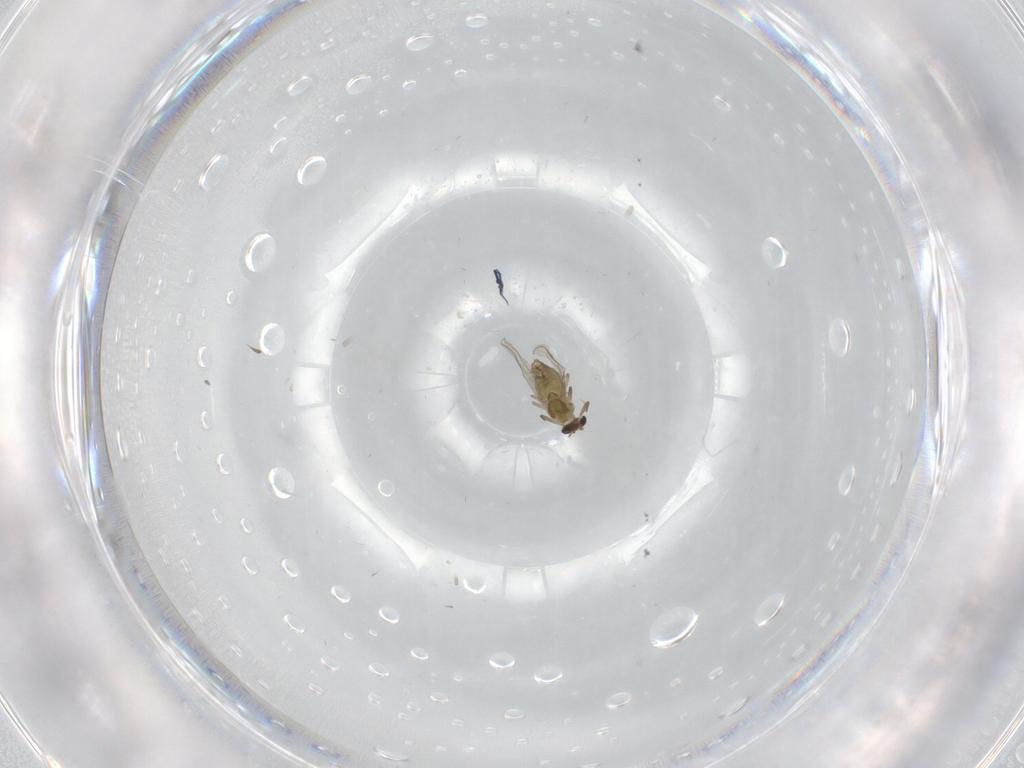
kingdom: Animalia
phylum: Arthropoda
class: Insecta
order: Diptera
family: Chironomidae
